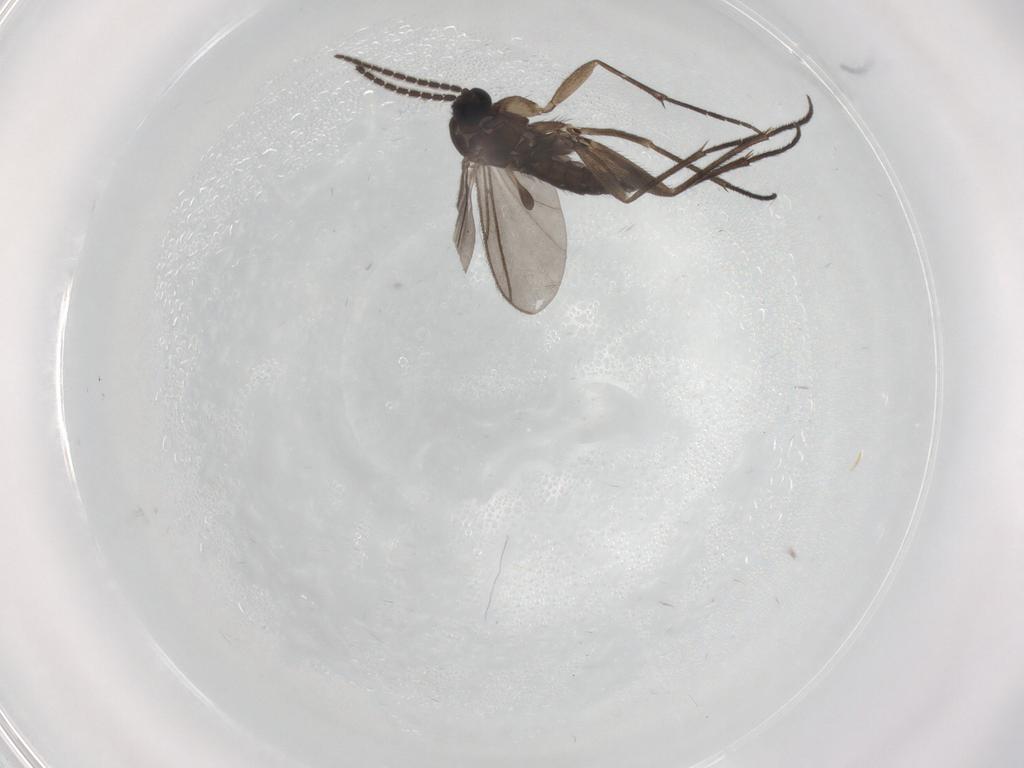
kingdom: Animalia
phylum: Arthropoda
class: Insecta
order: Diptera
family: Sciaridae
